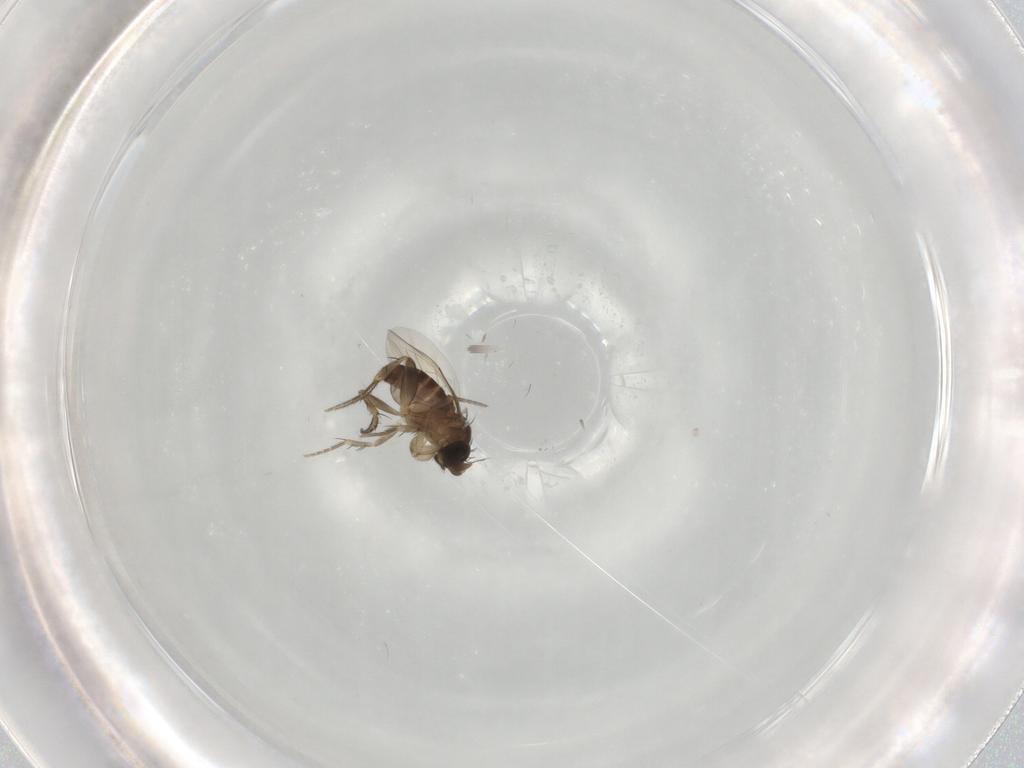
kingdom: Animalia
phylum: Arthropoda
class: Insecta
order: Diptera
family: Phoridae
